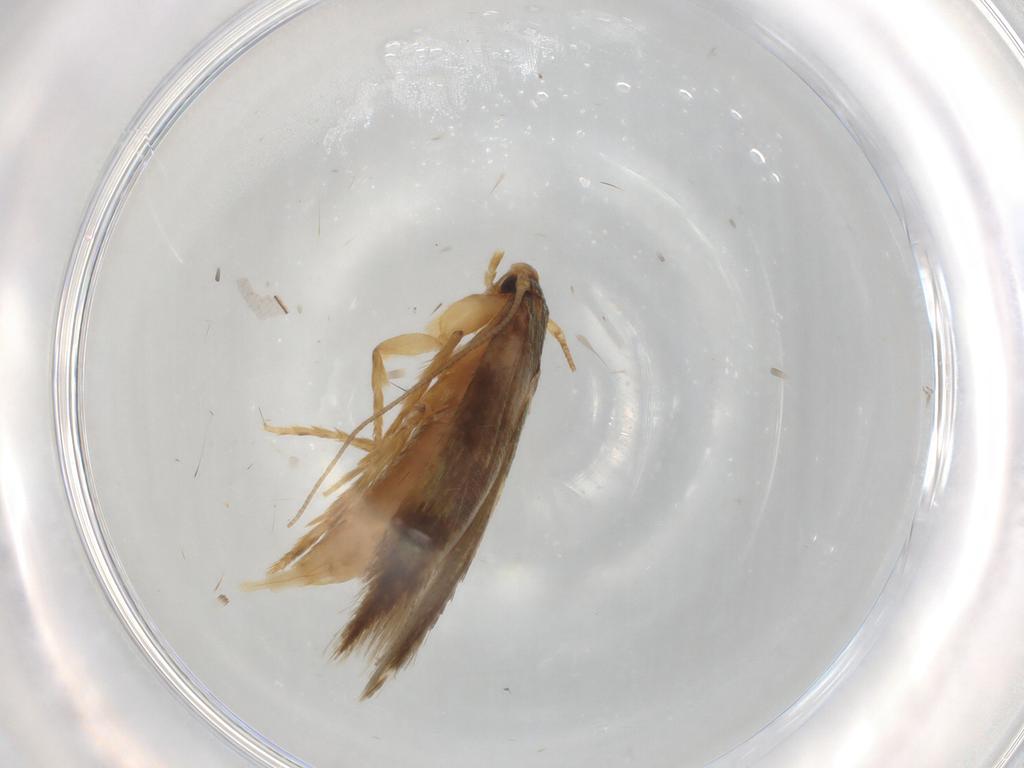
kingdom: Animalia
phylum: Arthropoda
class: Insecta
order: Lepidoptera
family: Elachistidae
